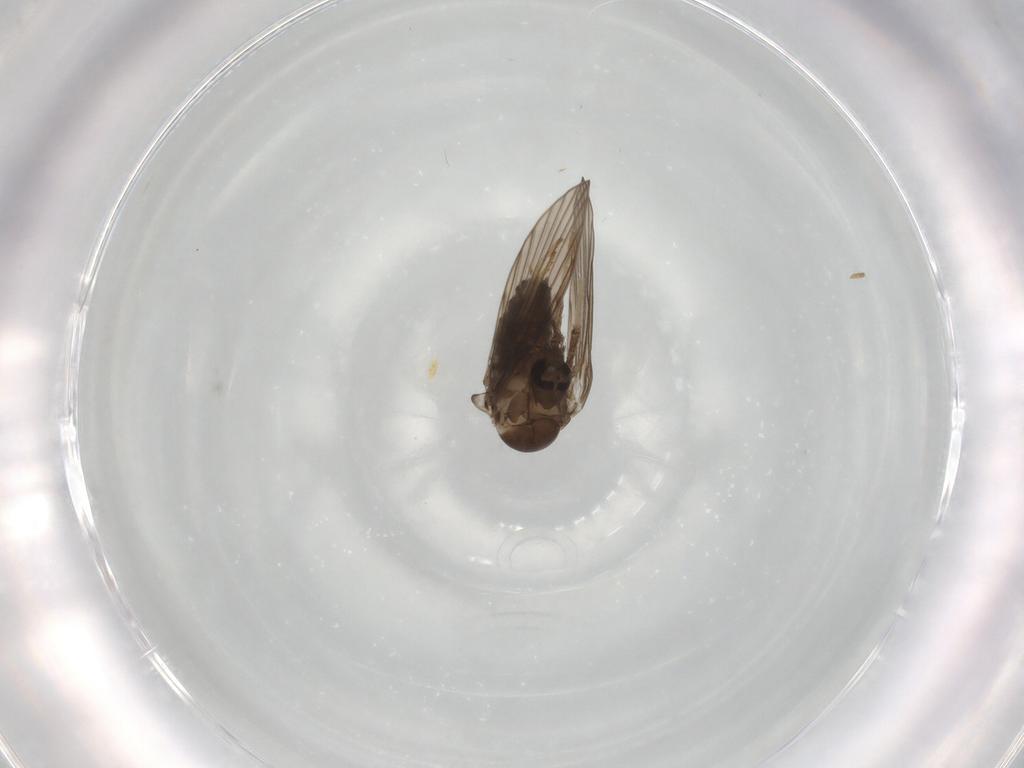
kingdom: Animalia
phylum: Arthropoda
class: Insecta
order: Diptera
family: Psychodidae
